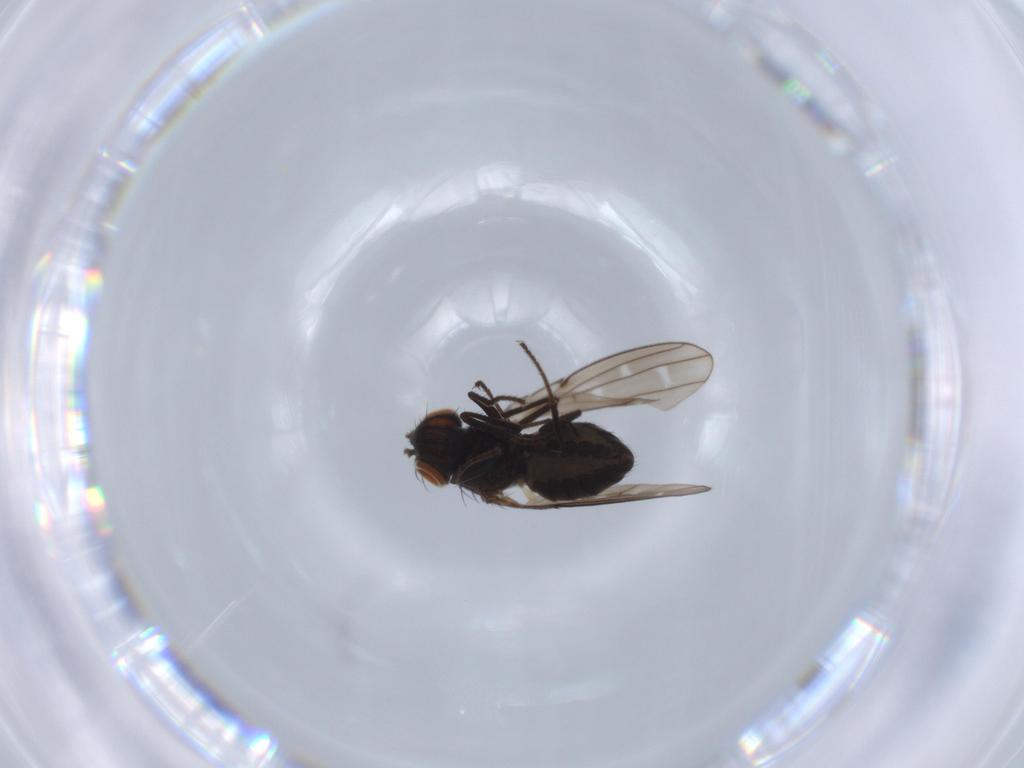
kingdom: Animalia
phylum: Arthropoda
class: Insecta
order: Diptera
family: Ephydridae
